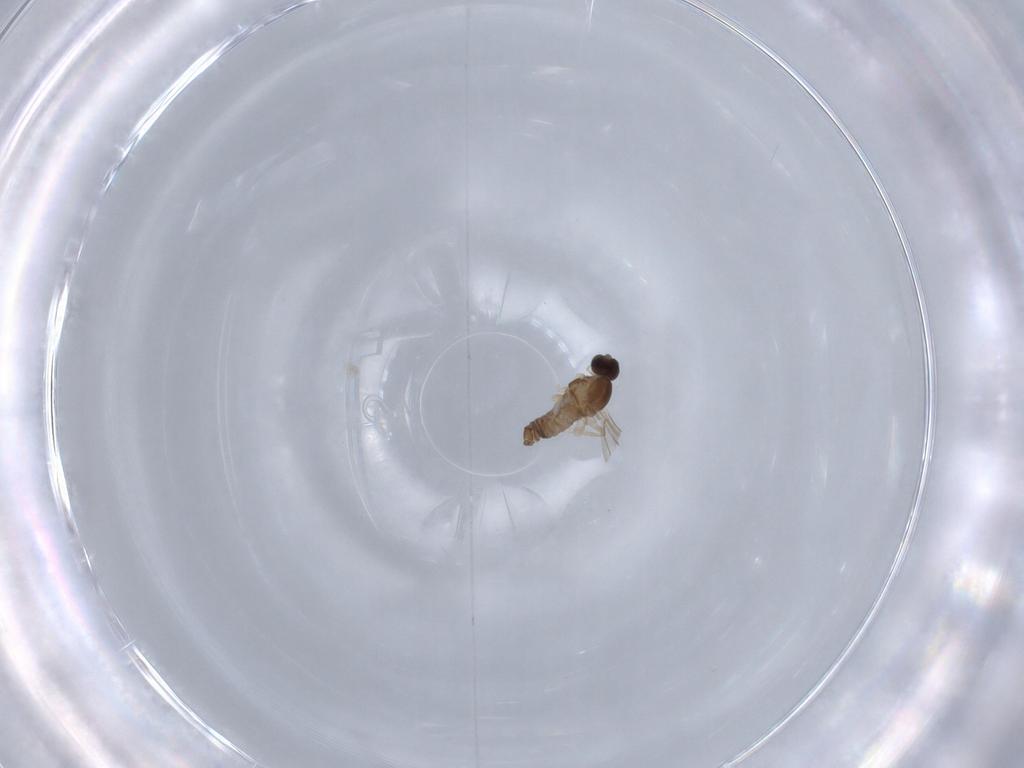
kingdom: Animalia
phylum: Arthropoda
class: Insecta
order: Diptera
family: Cecidomyiidae
